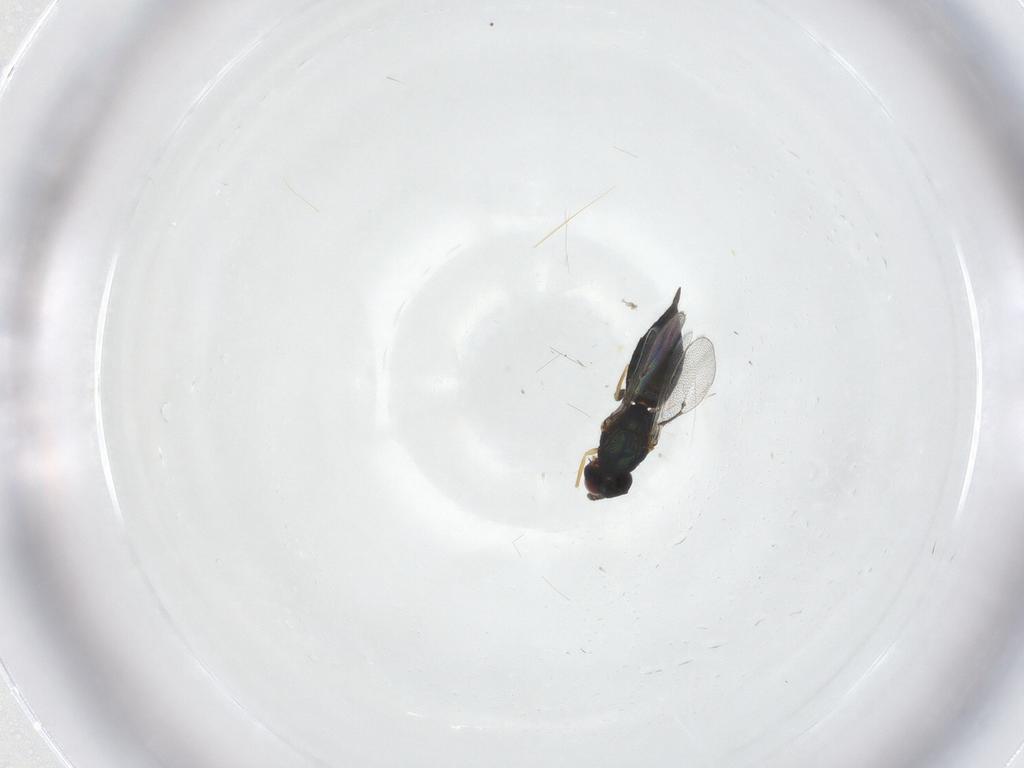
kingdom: Animalia
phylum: Arthropoda
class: Insecta
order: Hymenoptera
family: Eulophidae
